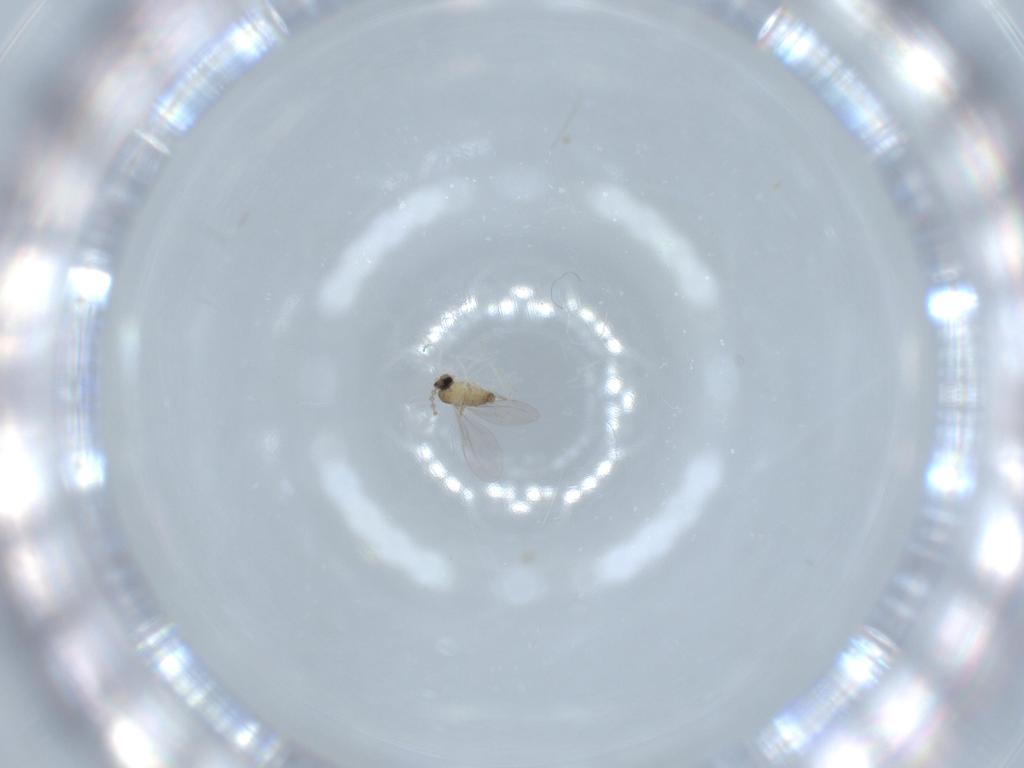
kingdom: Animalia
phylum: Arthropoda
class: Insecta
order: Diptera
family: Cecidomyiidae
